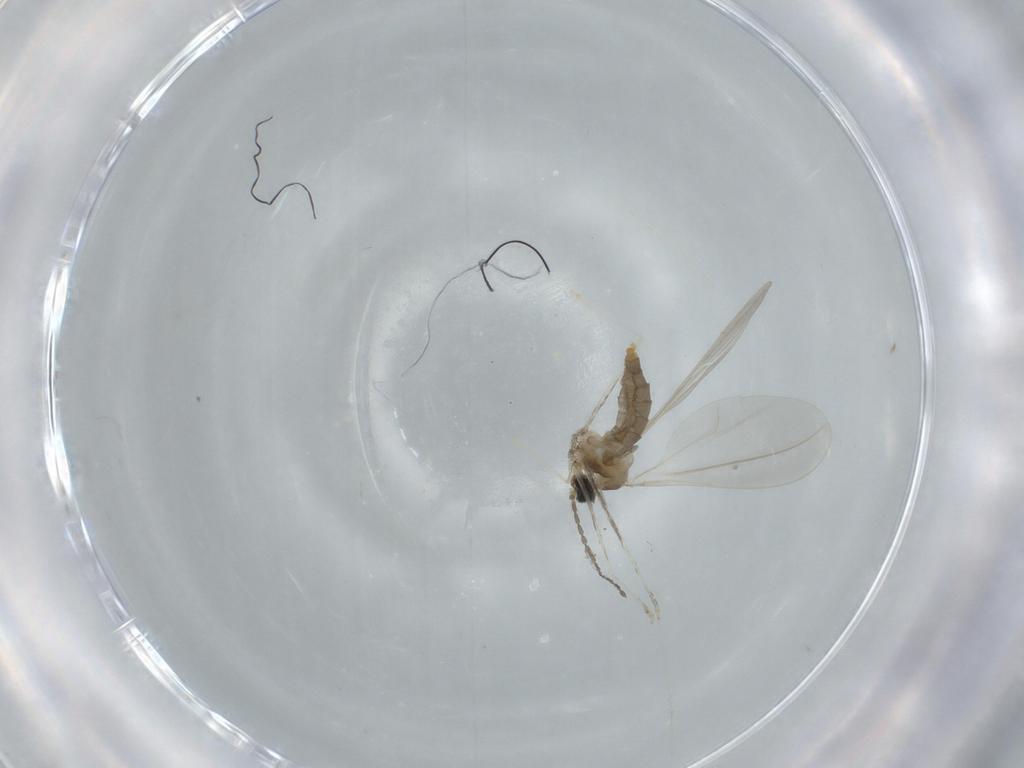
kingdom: Animalia
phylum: Arthropoda
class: Insecta
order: Diptera
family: Cecidomyiidae
